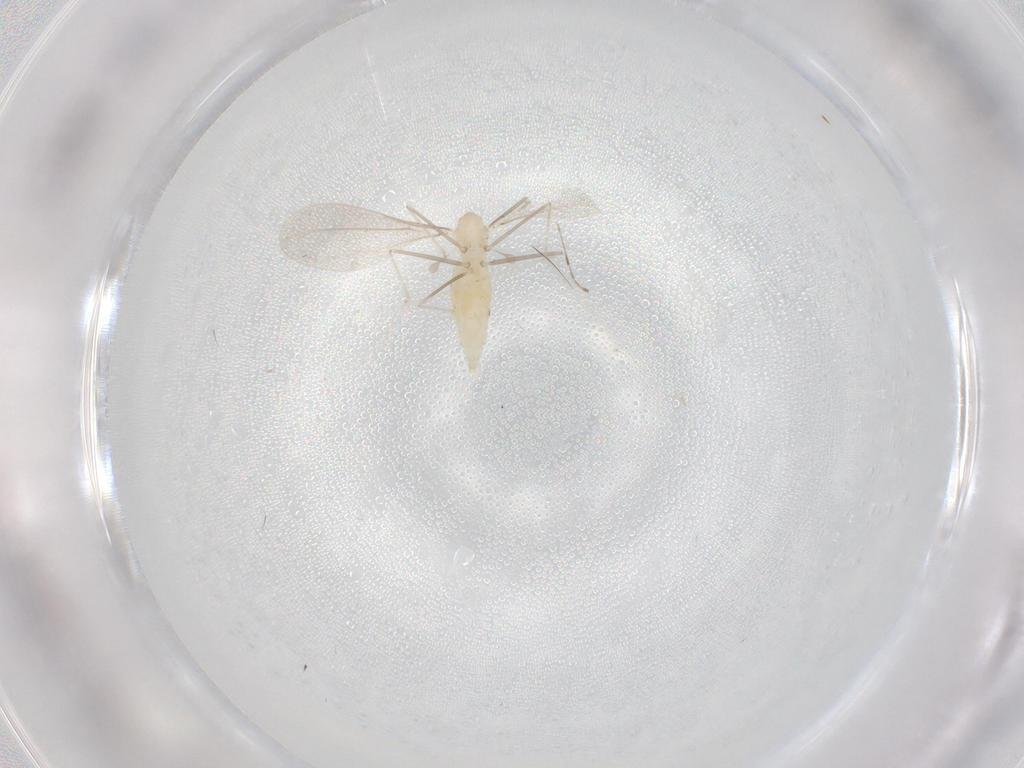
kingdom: Animalia
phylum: Arthropoda
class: Insecta
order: Diptera
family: Cecidomyiidae
